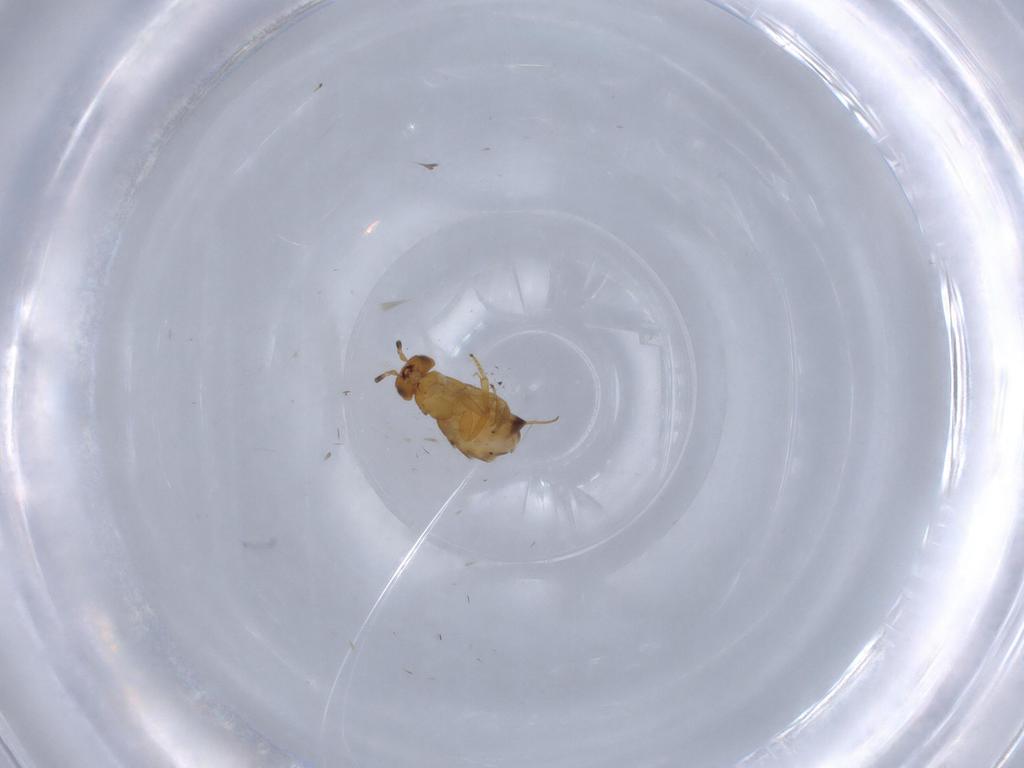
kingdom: Animalia
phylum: Arthropoda
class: Collembola
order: Entomobryomorpha
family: Isotomidae
